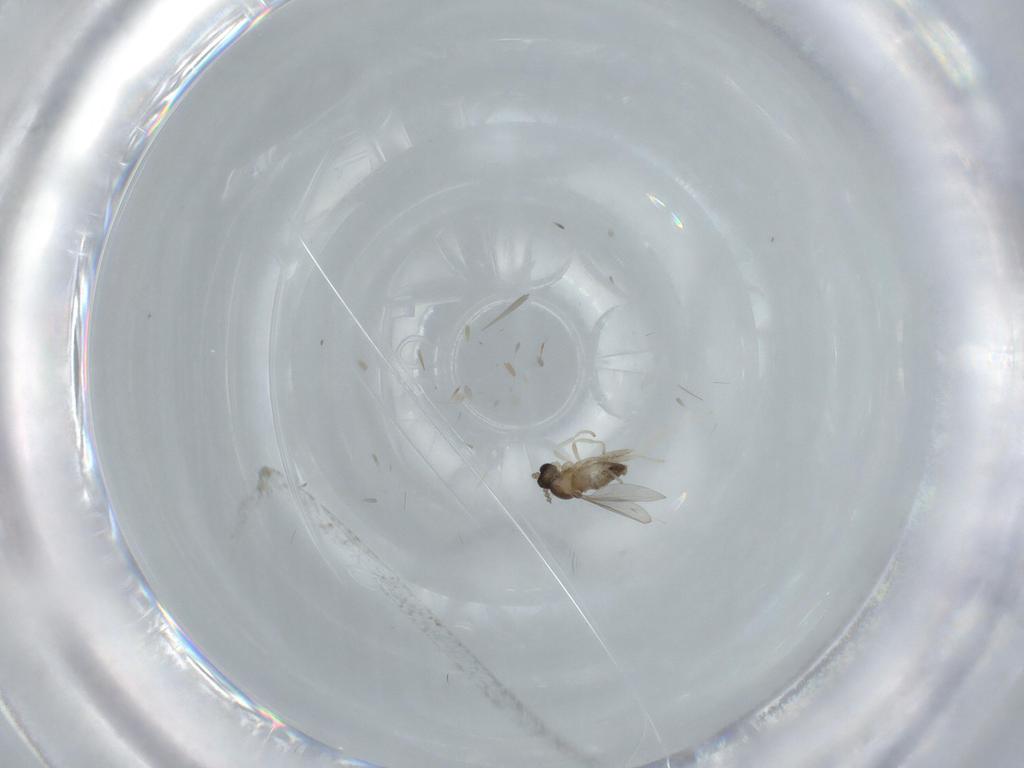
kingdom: Animalia
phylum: Arthropoda
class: Insecta
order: Diptera
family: Cecidomyiidae
